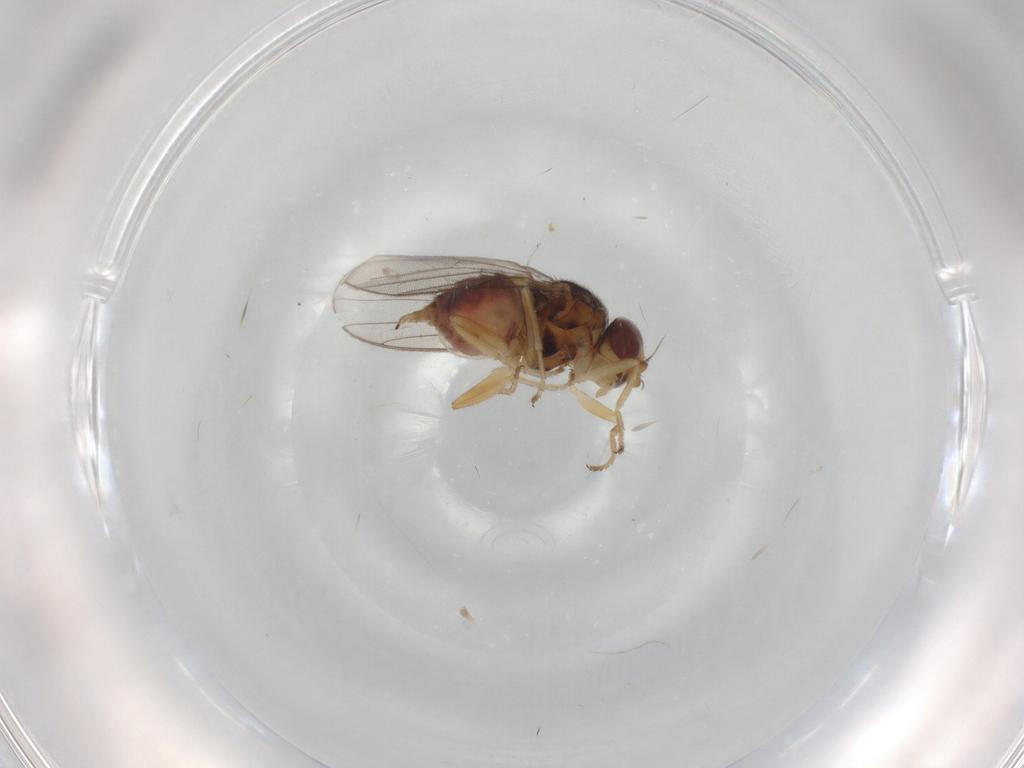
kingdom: Animalia
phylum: Arthropoda
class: Insecta
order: Diptera
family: Chloropidae
